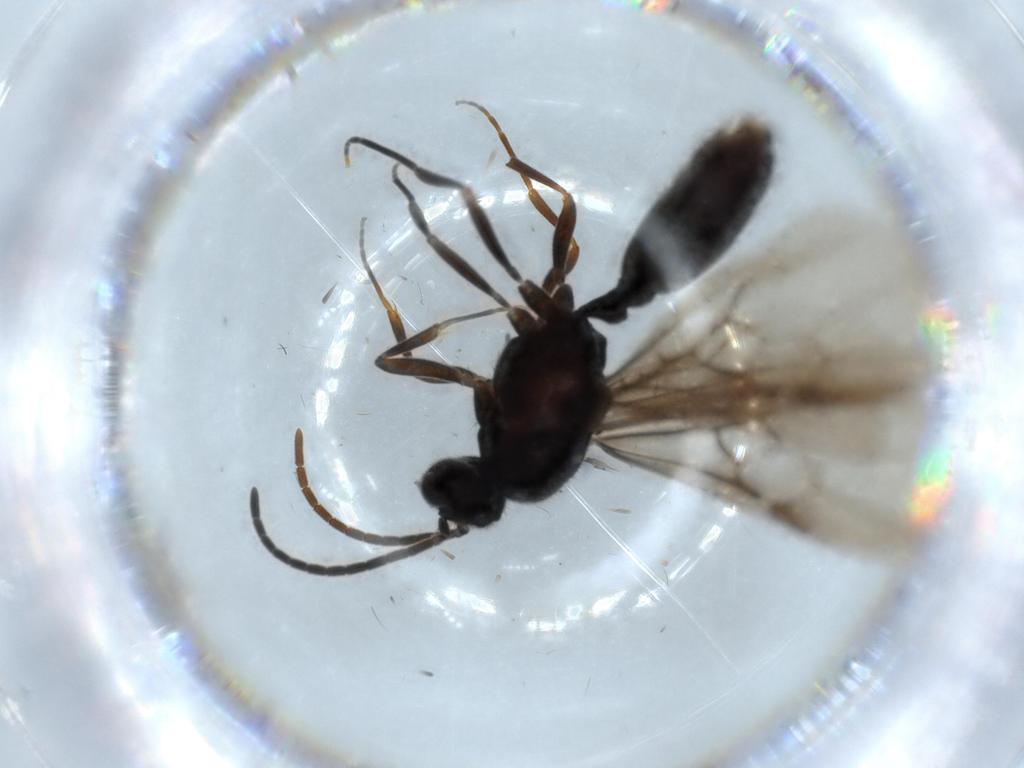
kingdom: Animalia
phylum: Arthropoda
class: Insecta
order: Hymenoptera
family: Formicidae
